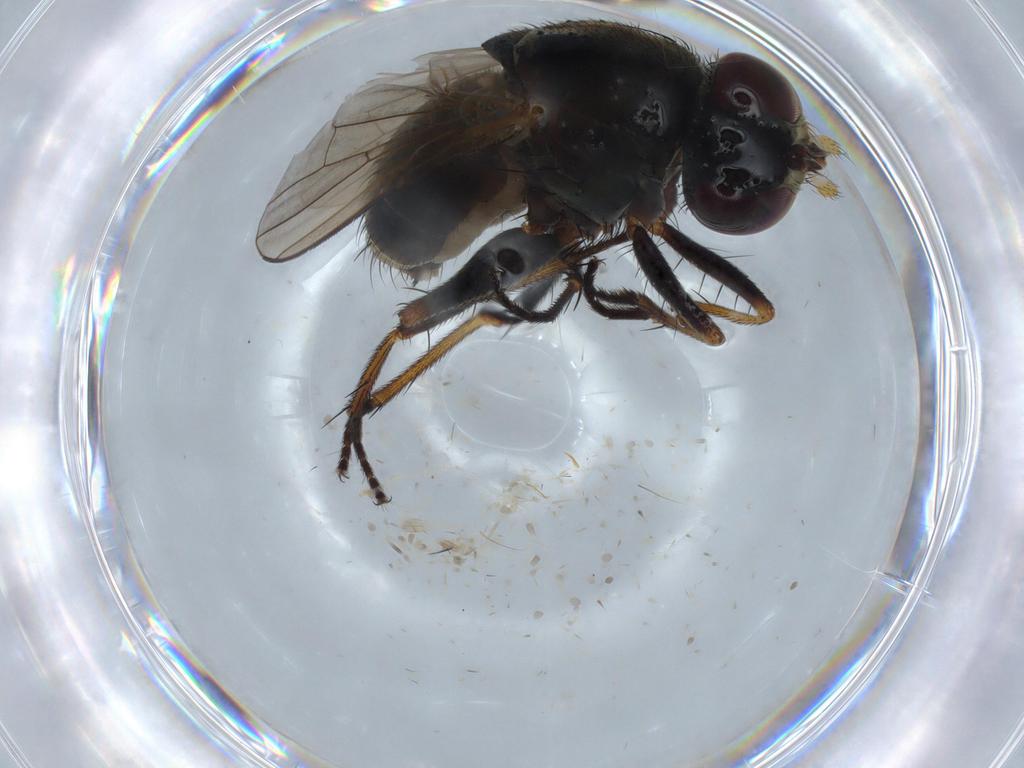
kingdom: Animalia
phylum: Arthropoda
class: Insecta
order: Diptera
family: Muscidae
